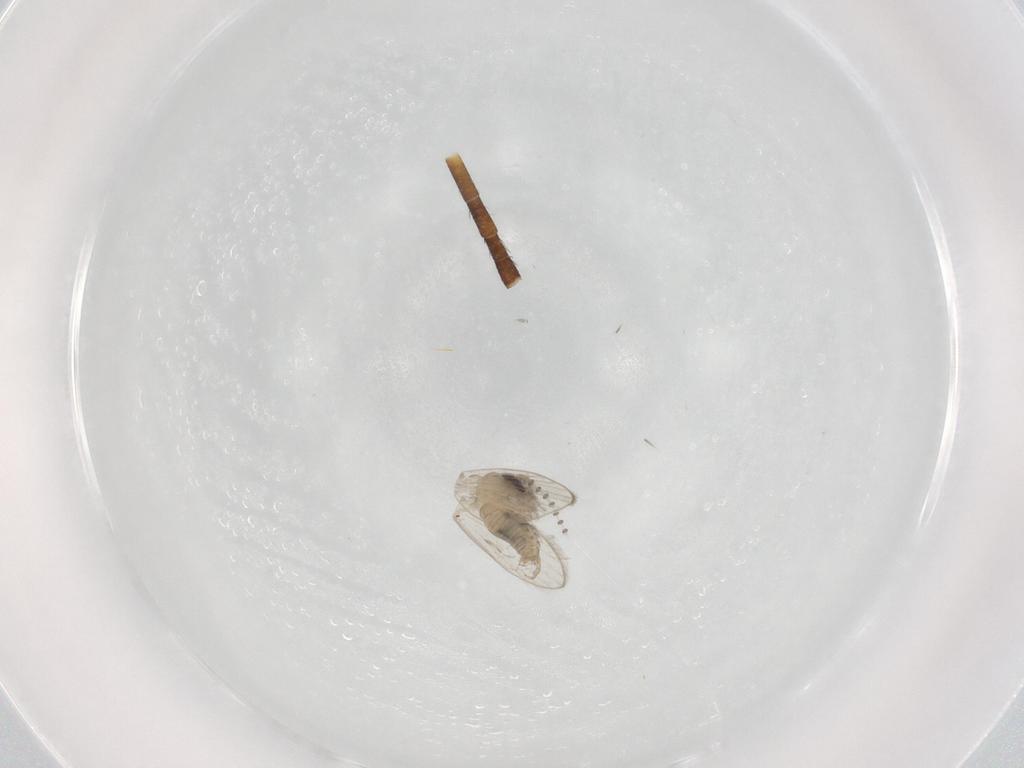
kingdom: Animalia
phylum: Arthropoda
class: Insecta
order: Diptera
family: Psychodidae
